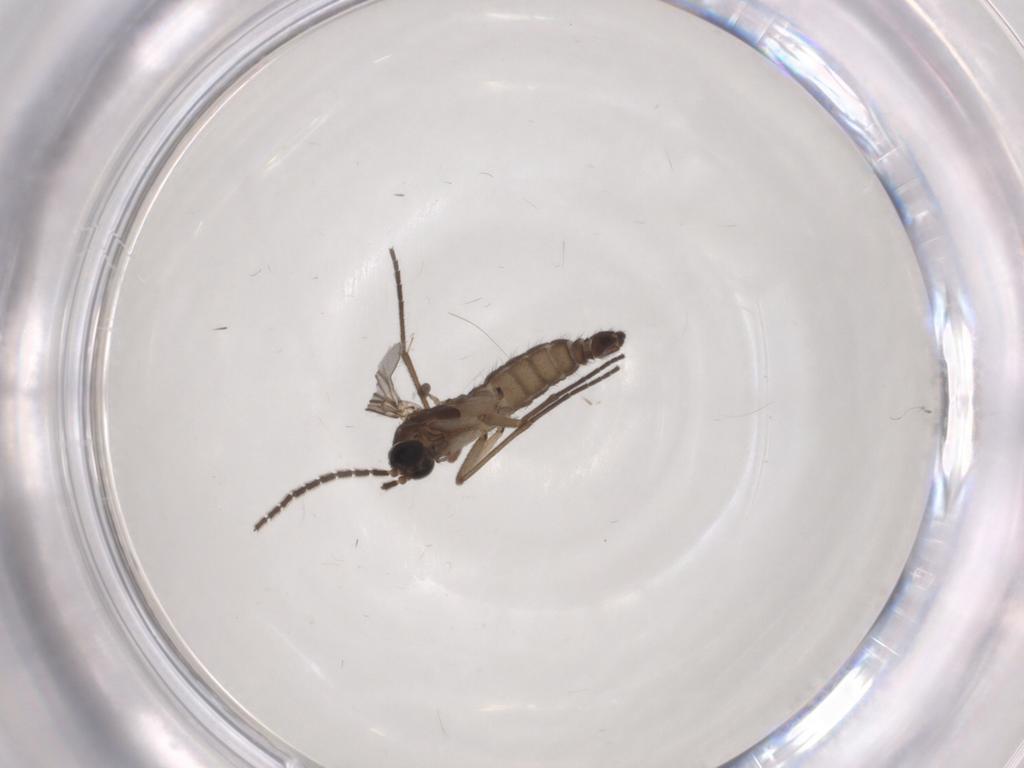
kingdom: Animalia
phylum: Arthropoda
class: Insecta
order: Diptera
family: Sciaridae
